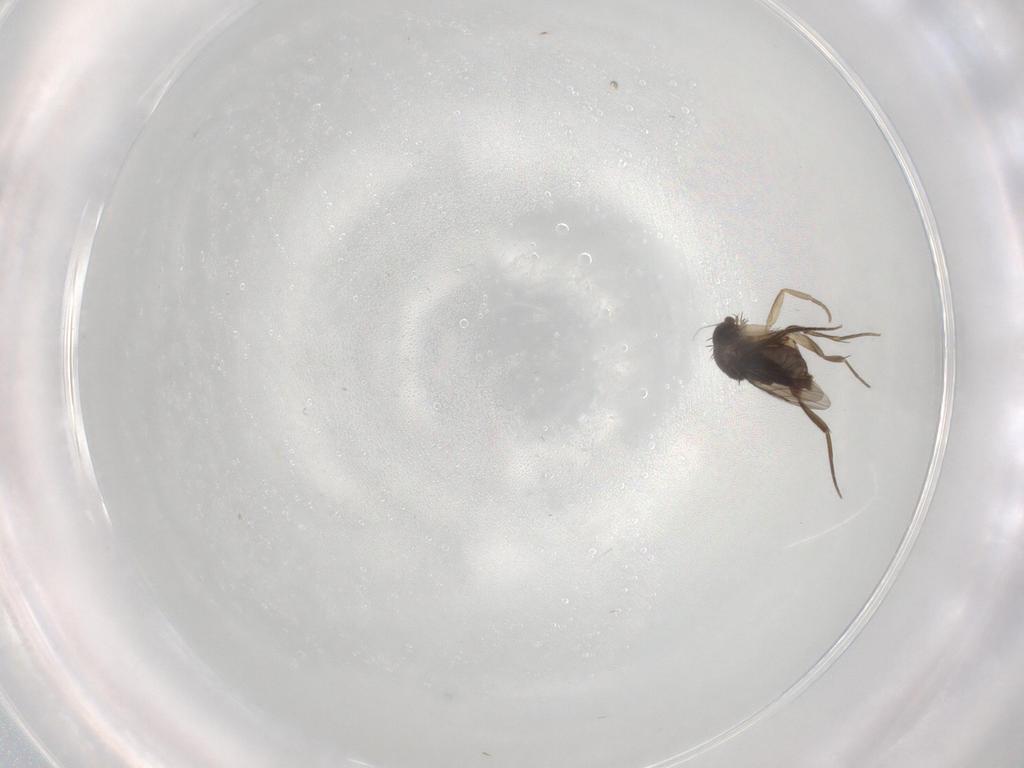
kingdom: Animalia
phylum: Arthropoda
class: Insecta
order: Diptera
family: Phoridae
